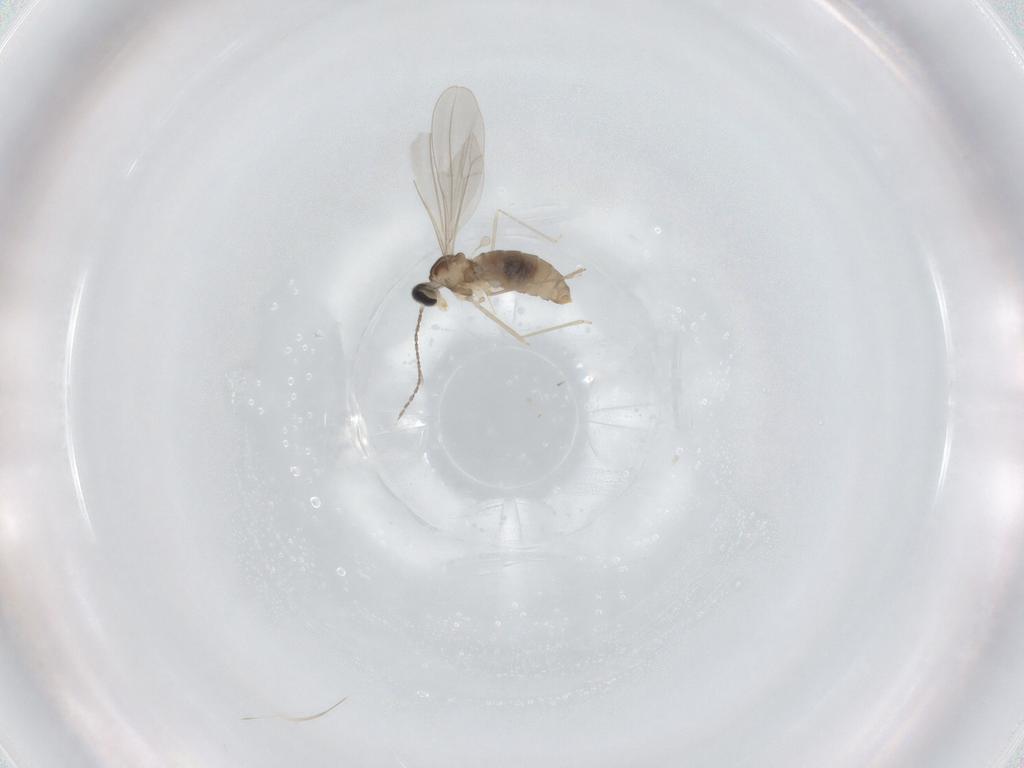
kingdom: Animalia
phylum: Arthropoda
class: Insecta
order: Diptera
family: Cecidomyiidae
